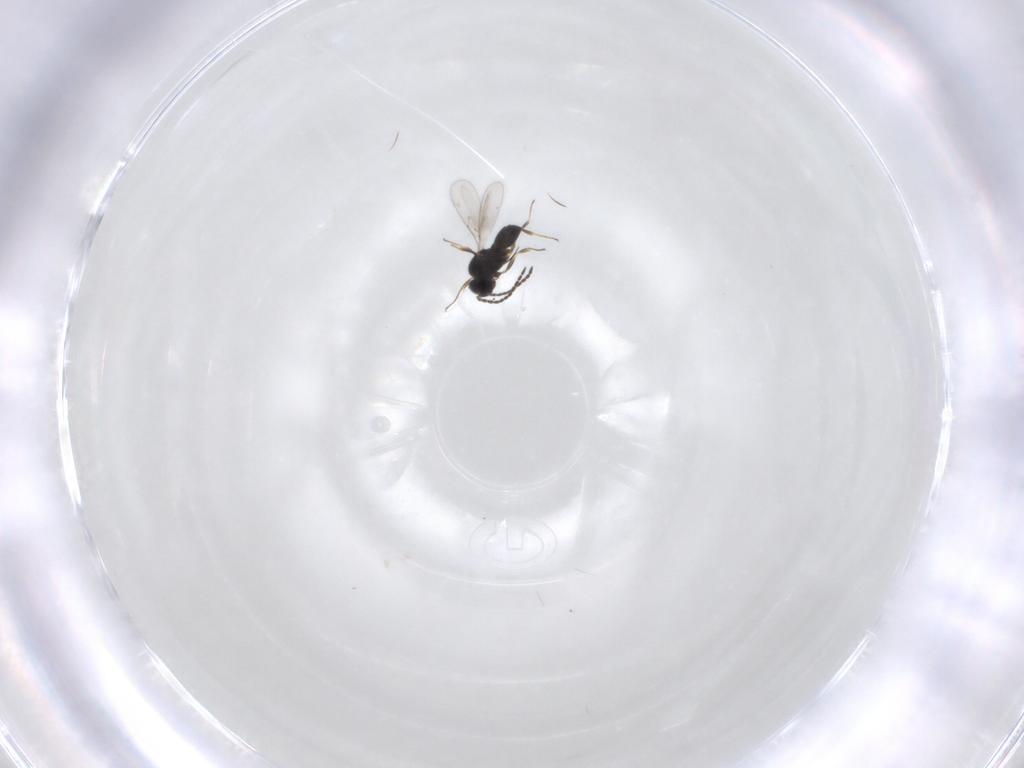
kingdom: Animalia
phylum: Arthropoda
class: Insecta
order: Hymenoptera
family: Scelionidae
